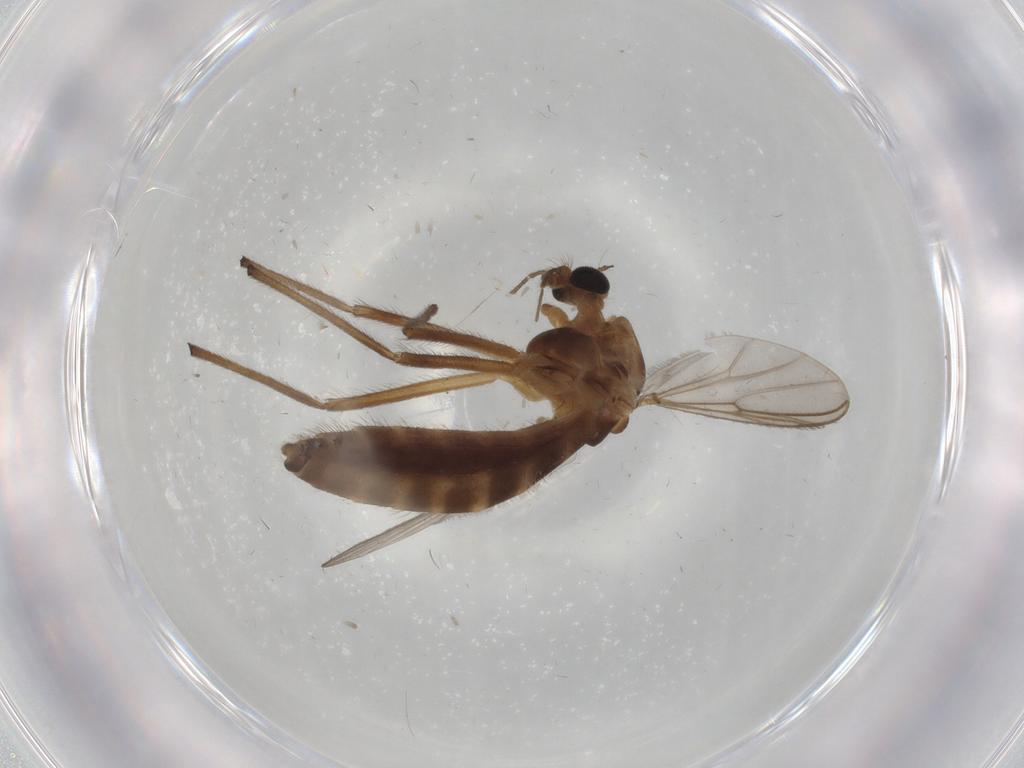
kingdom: Animalia
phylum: Arthropoda
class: Insecta
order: Diptera
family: Chironomidae
